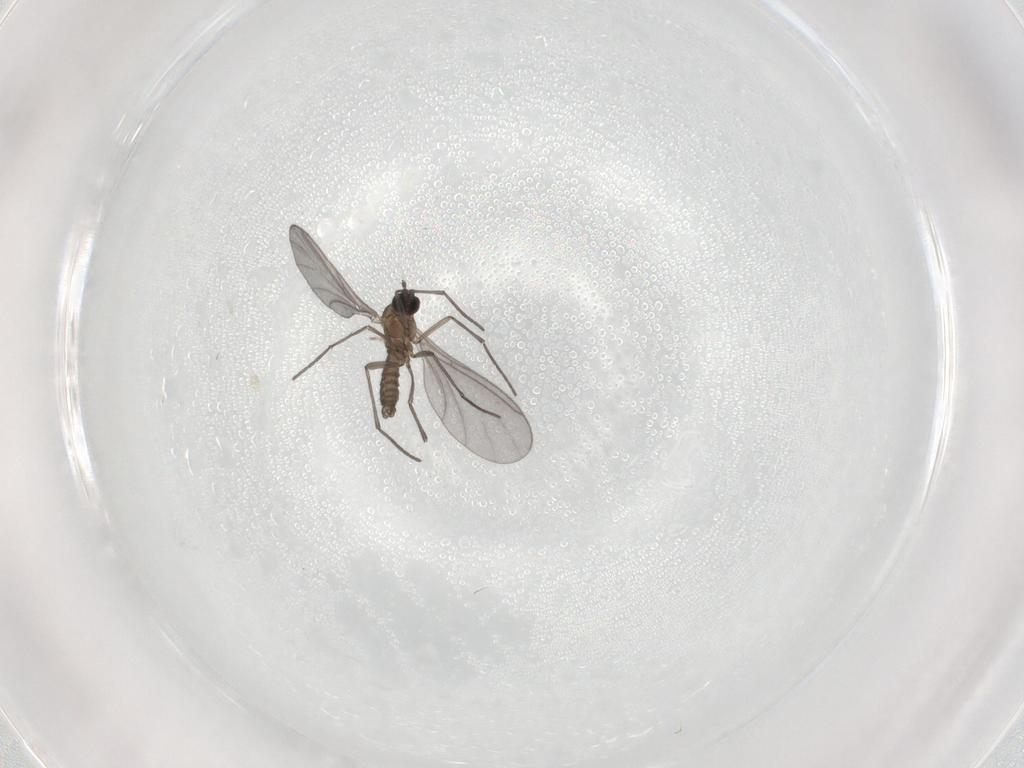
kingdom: Animalia
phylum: Arthropoda
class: Insecta
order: Diptera
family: Sciaridae
